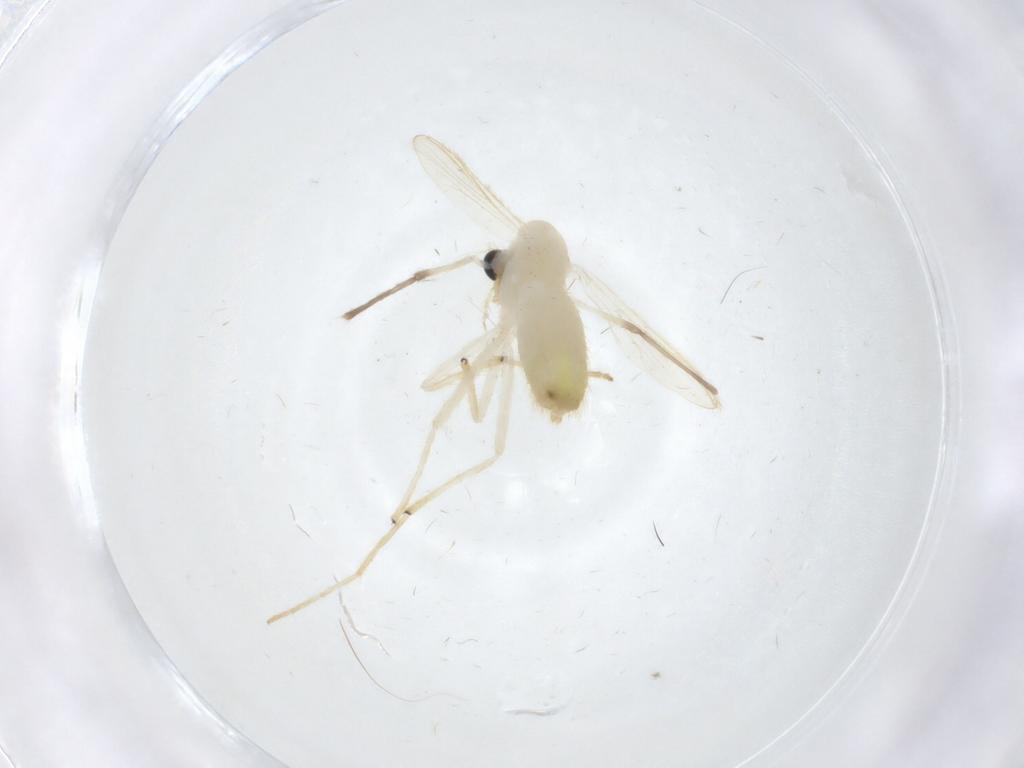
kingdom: Animalia
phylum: Arthropoda
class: Insecta
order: Diptera
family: Chironomidae
